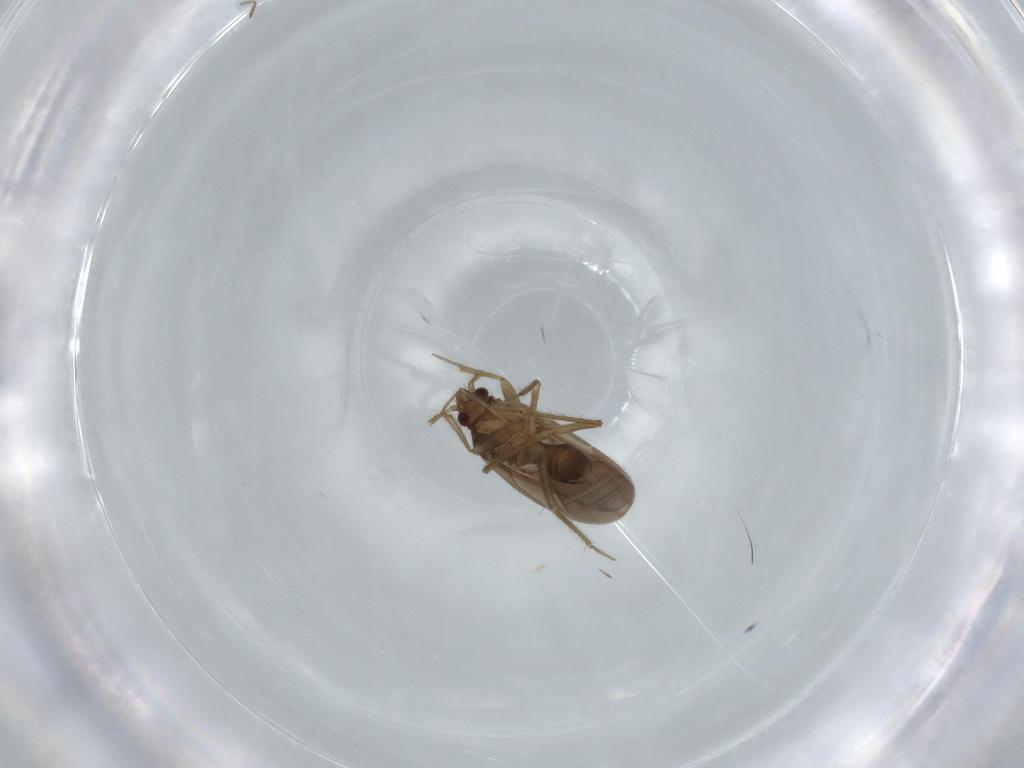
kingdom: Animalia
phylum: Arthropoda
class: Insecta
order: Hemiptera
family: Ceratocombidae
